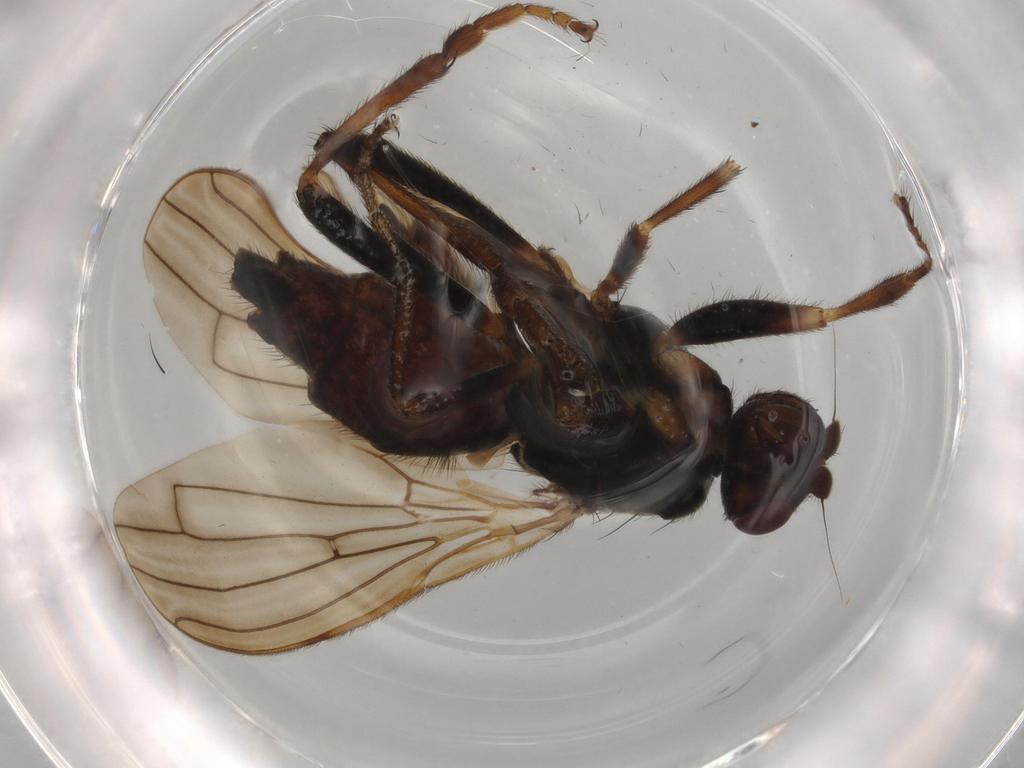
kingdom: Animalia
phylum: Arthropoda
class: Insecta
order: Diptera
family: Sphaeroceridae
